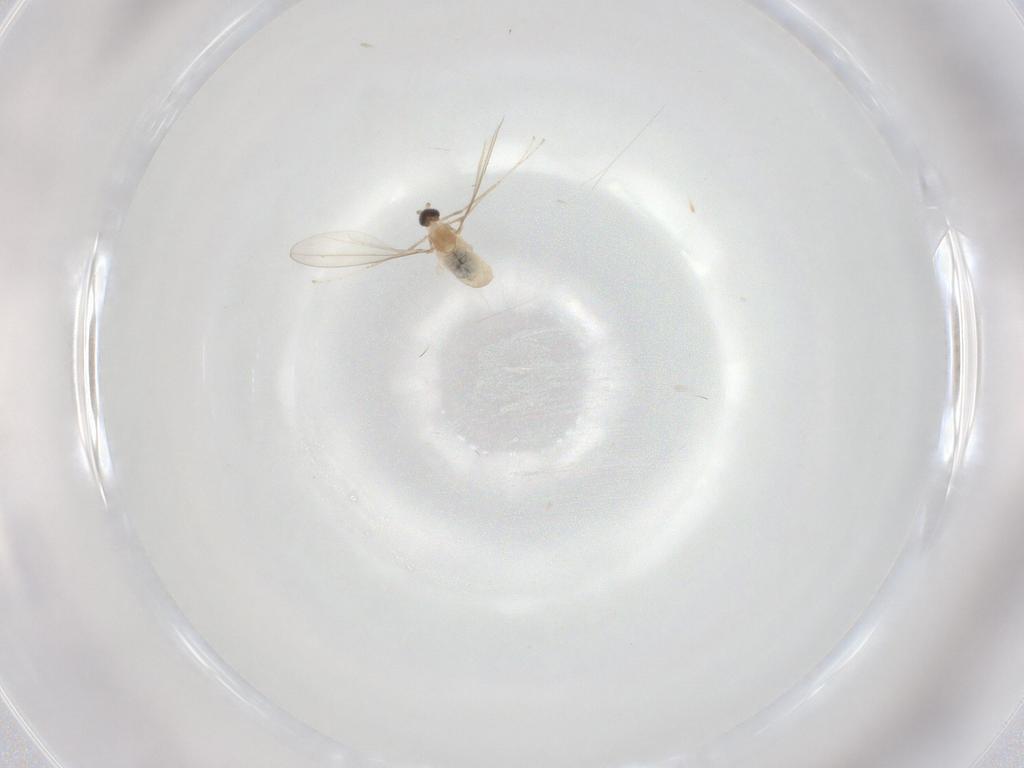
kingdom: Animalia
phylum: Arthropoda
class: Insecta
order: Diptera
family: Cecidomyiidae
